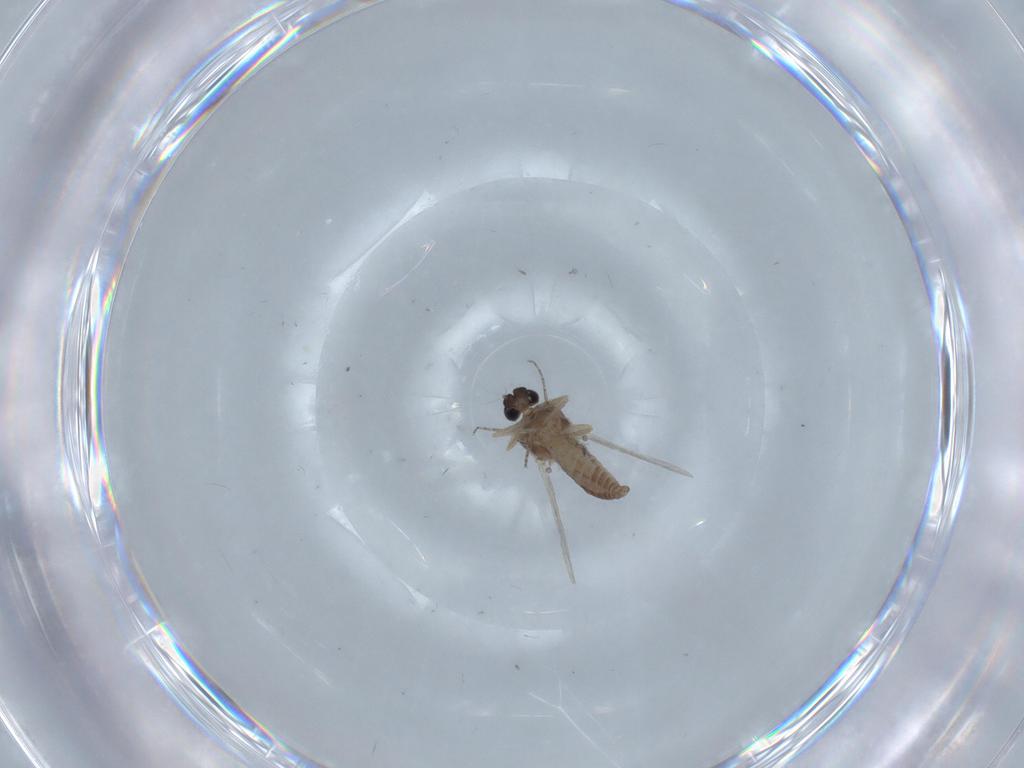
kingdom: Animalia
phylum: Arthropoda
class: Insecta
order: Diptera
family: Ceratopogonidae
